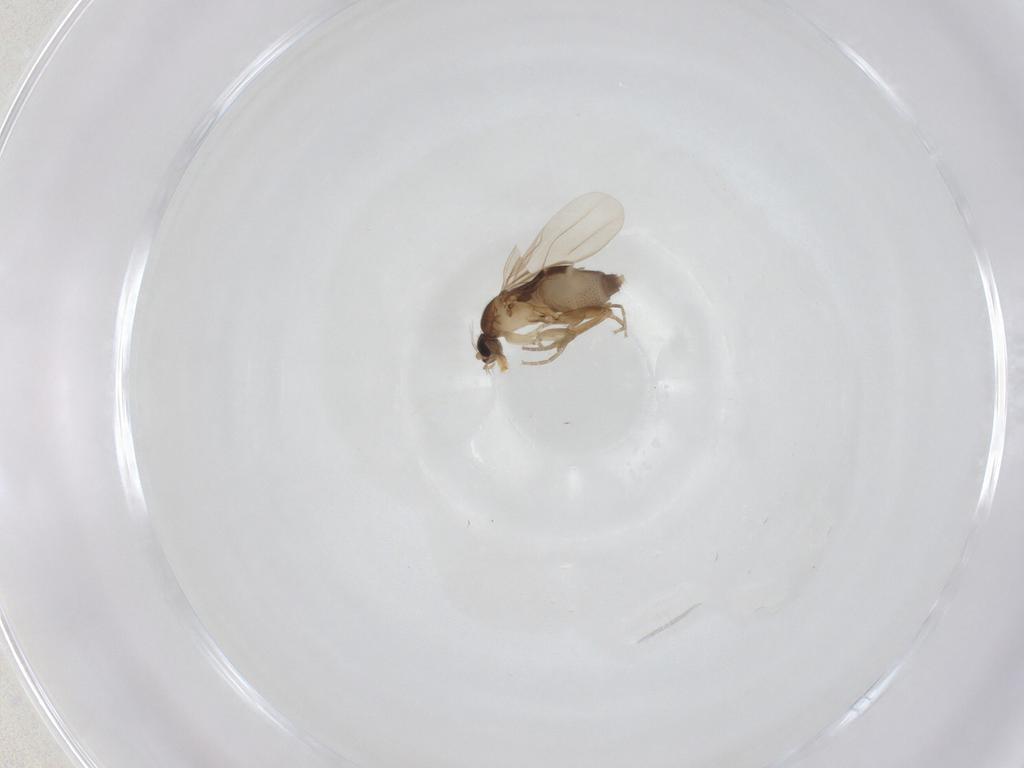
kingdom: Animalia
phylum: Arthropoda
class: Insecta
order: Diptera
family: Phoridae
